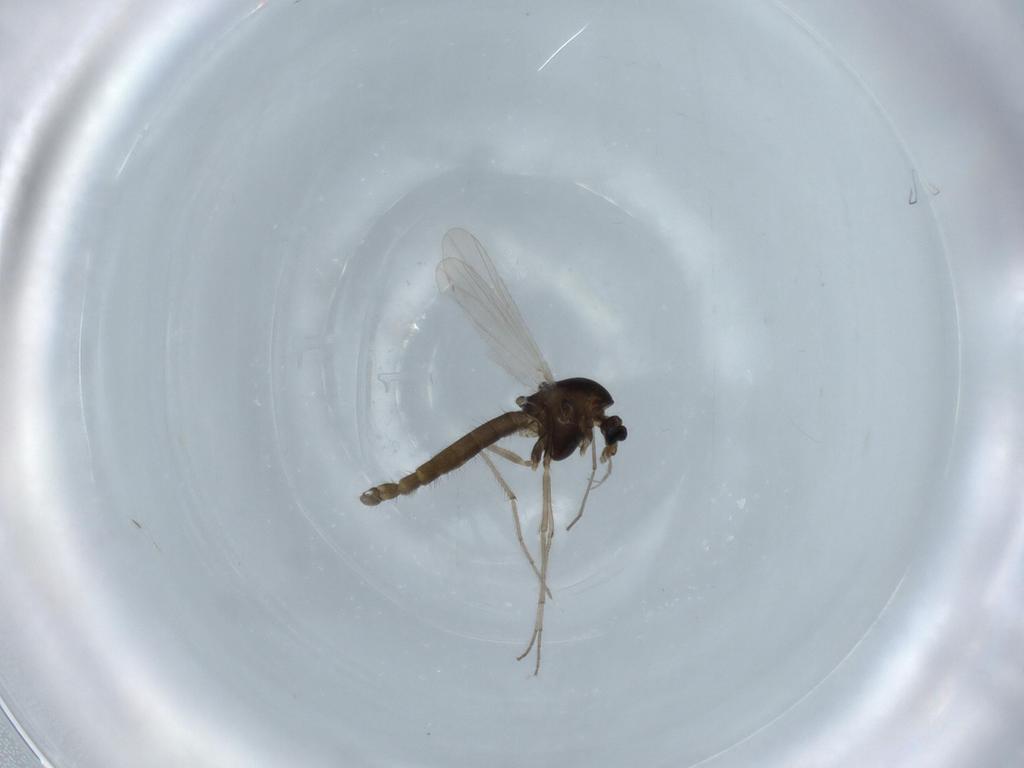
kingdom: Animalia
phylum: Arthropoda
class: Insecta
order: Diptera
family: Chironomidae
